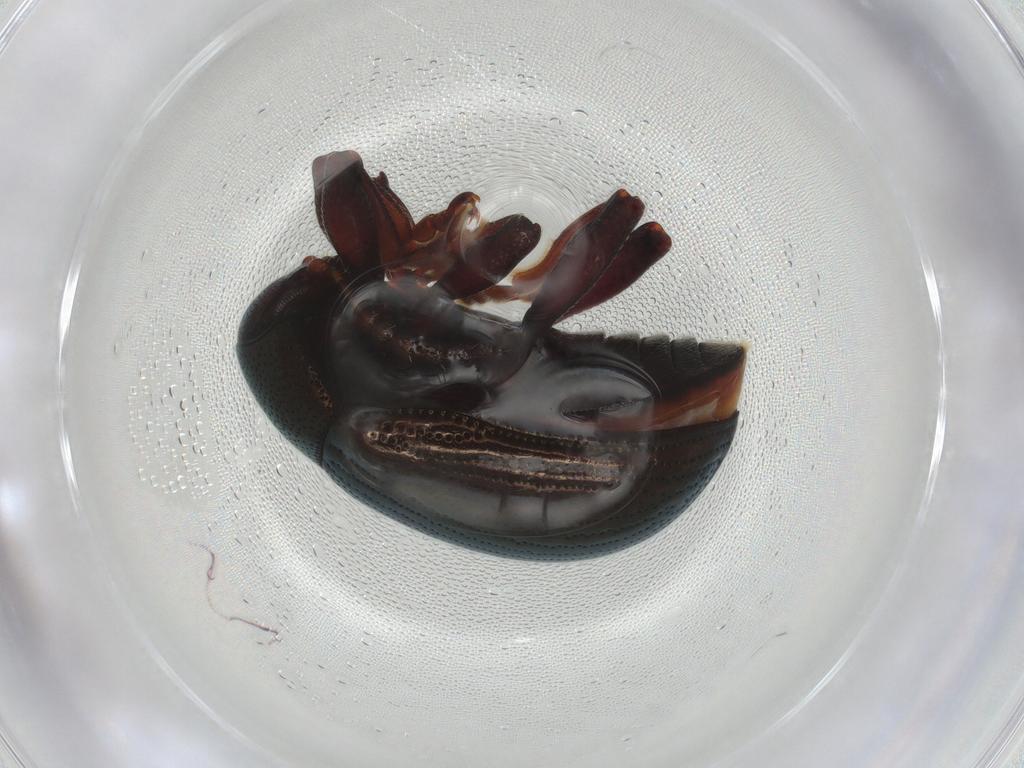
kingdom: Animalia
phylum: Arthropoda
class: Insecta
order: Coleoptera
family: Chrysomelidae
